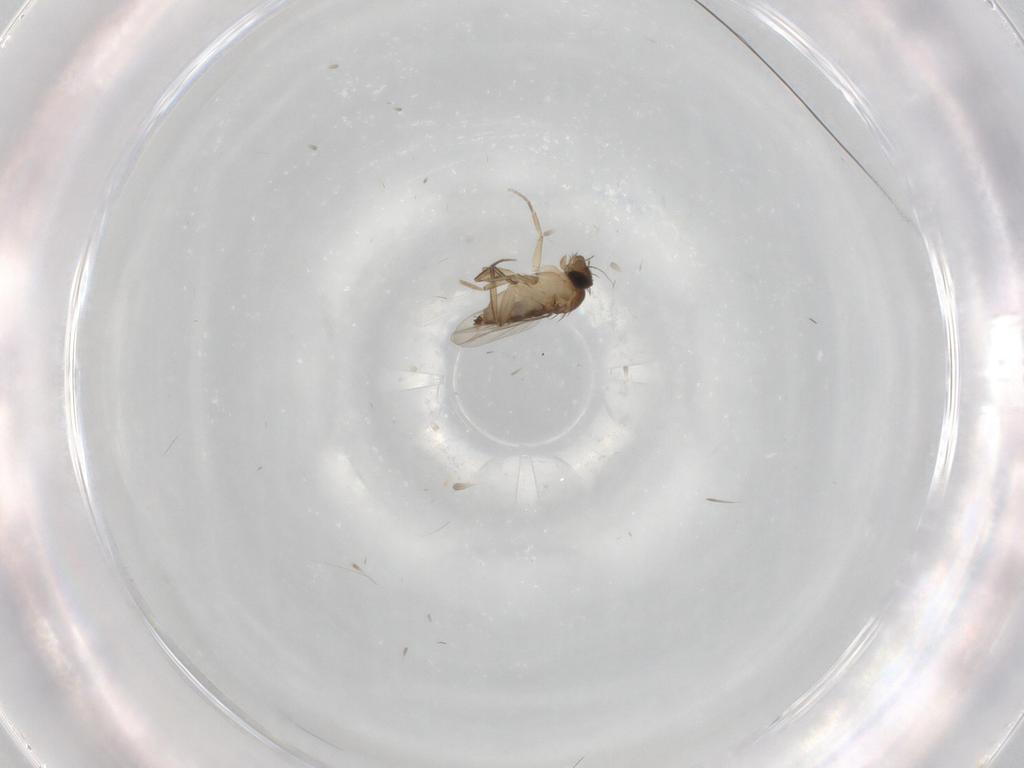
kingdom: Animalia
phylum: Arthropoda
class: Insecta
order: Diptera
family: Phoridae
